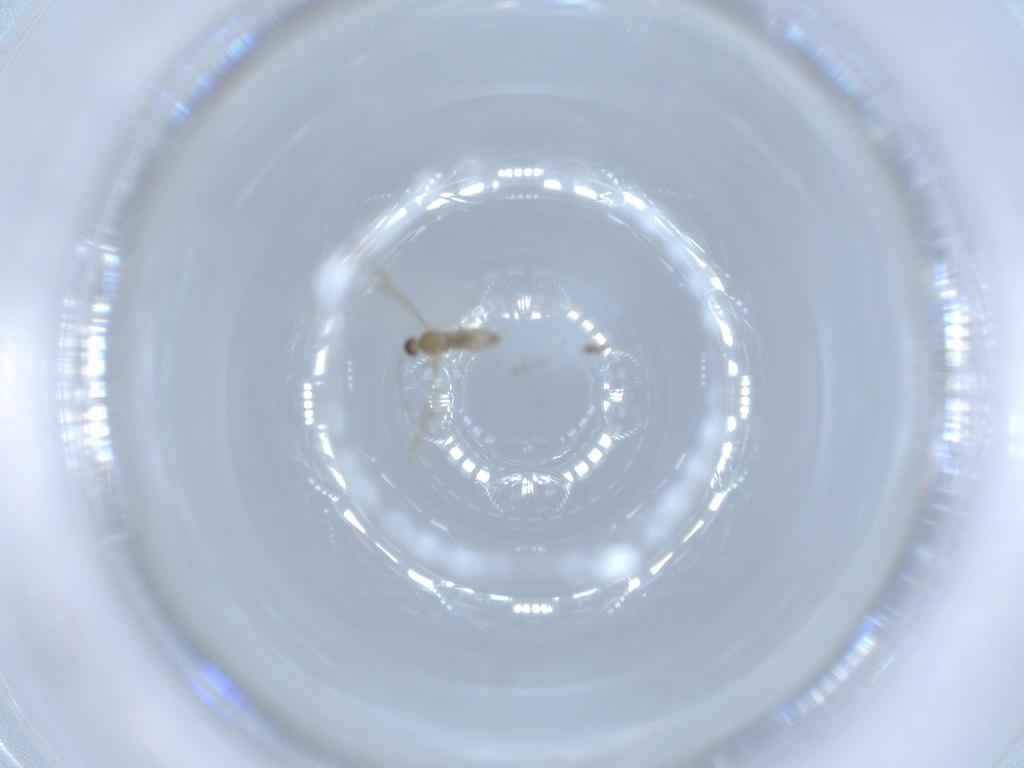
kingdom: Animalia
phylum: Arthropoda
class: Insecta
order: Diptera
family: Cecidomyiidae
